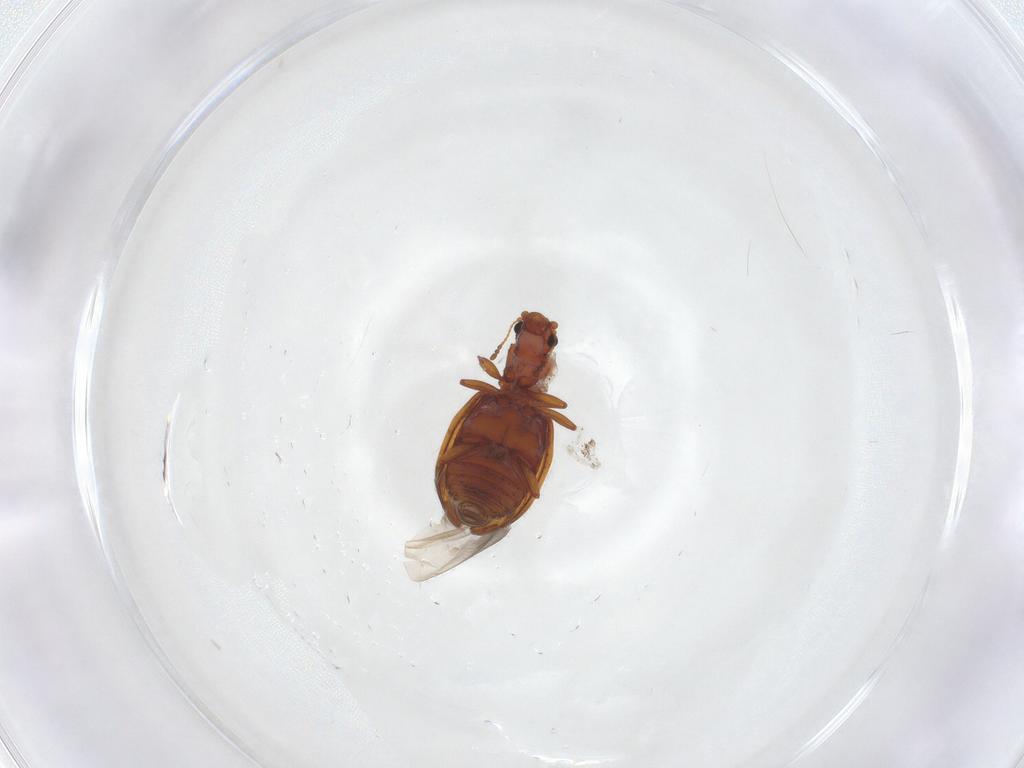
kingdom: Animalia
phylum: Arthropoda
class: Insecta
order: Coleoptera
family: Latridiidae
